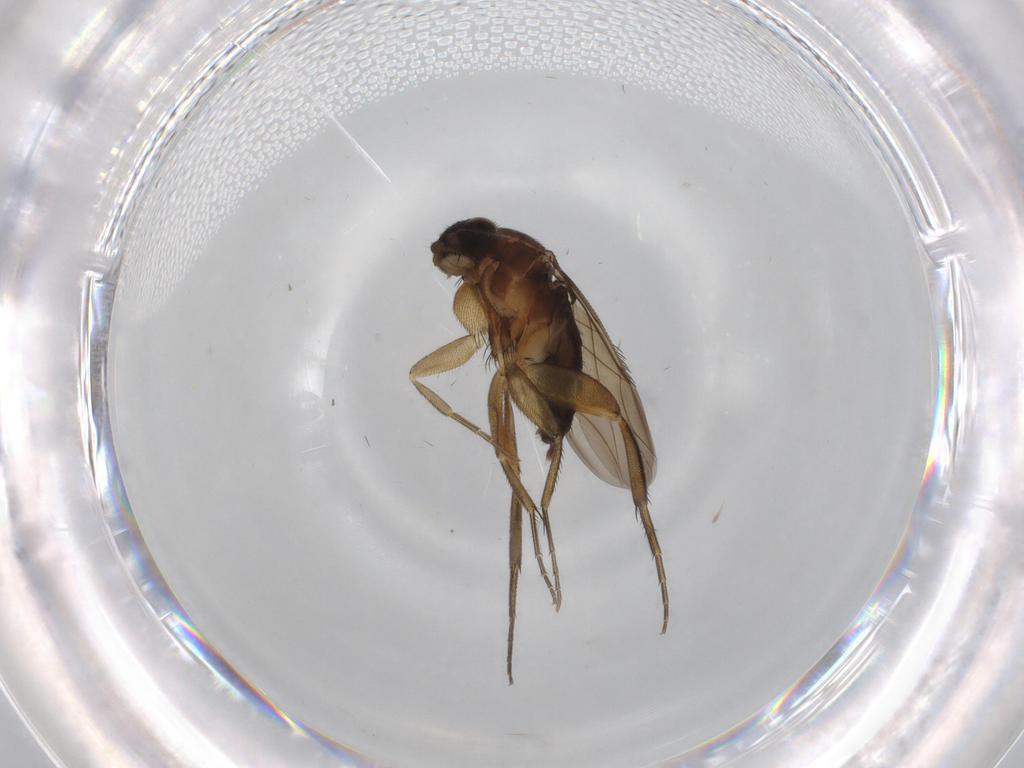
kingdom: Animalia
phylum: Arthropoda
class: Insecta
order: Diptera
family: Phoridae
